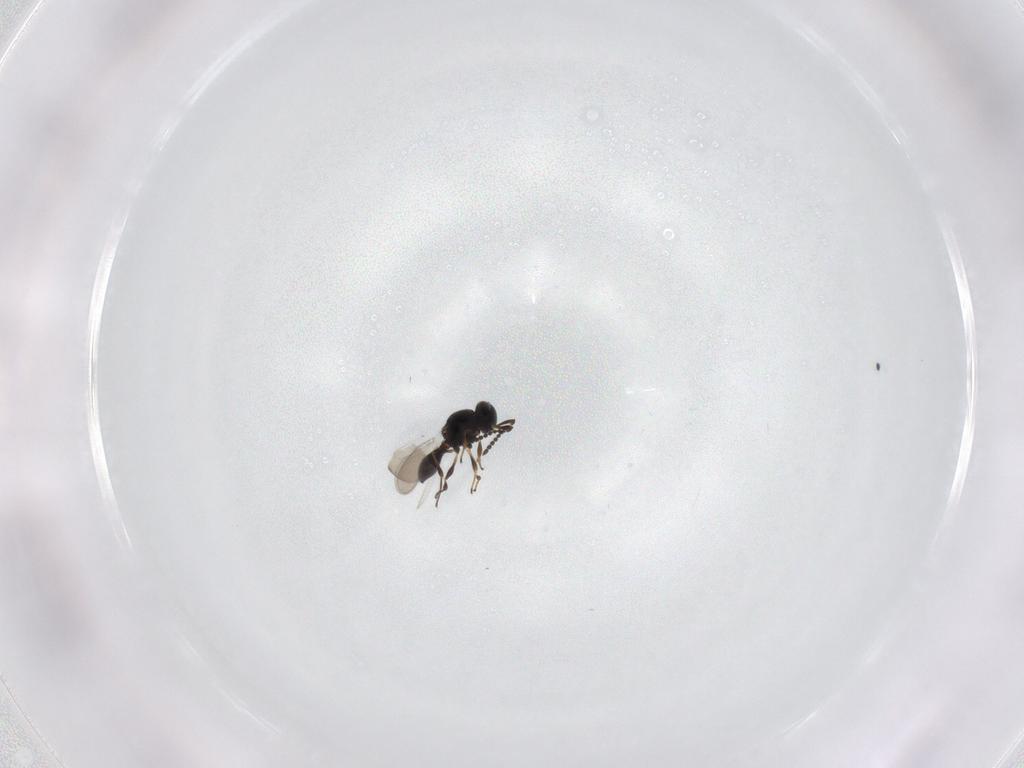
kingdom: Animalia
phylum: Arthropoda
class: Insecta
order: Hymenoptera
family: Platygastridae
